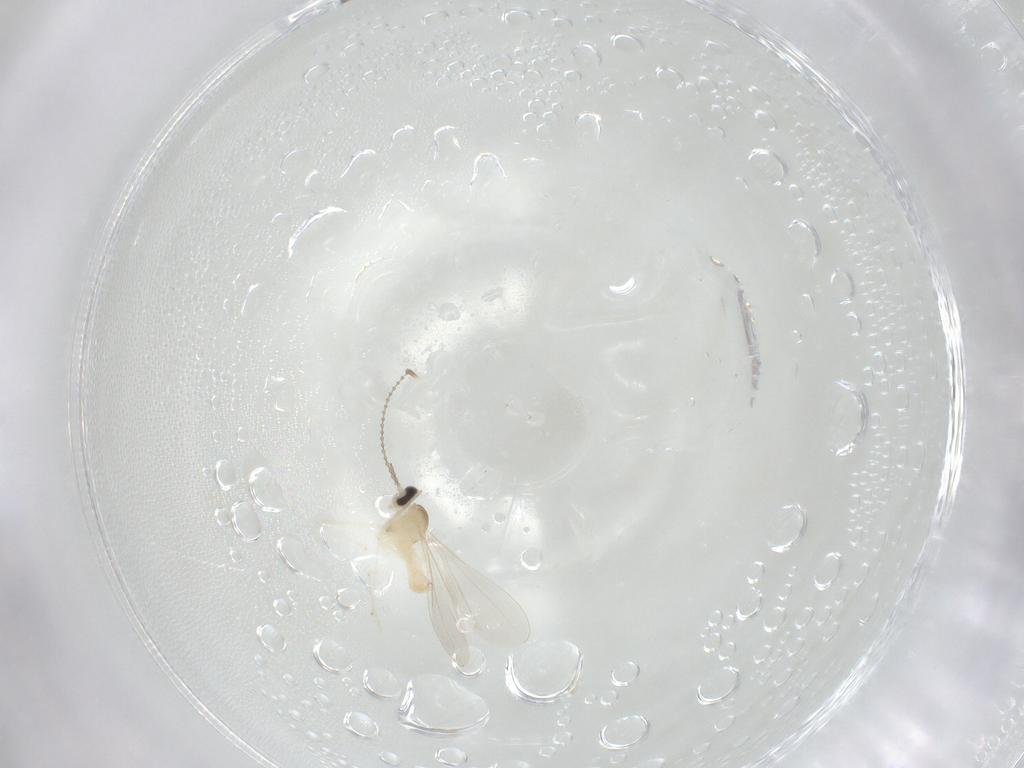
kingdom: Animalia
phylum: Arthropoda
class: Insecta
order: Diptera
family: Cecidomyiidae
